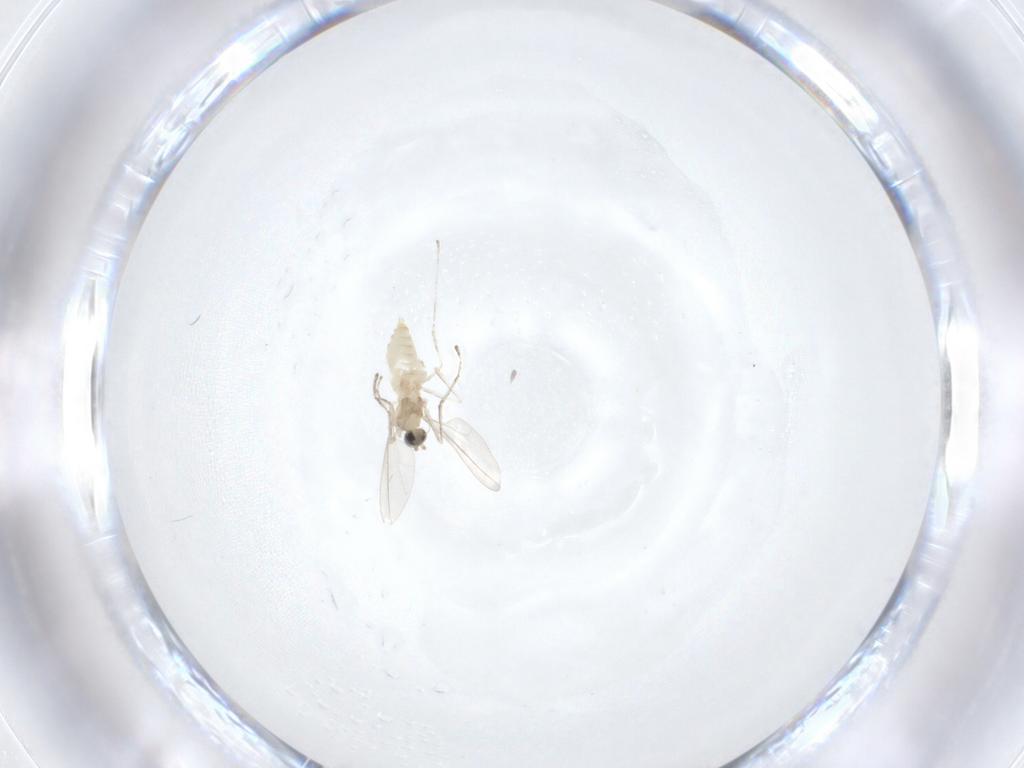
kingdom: Animalia
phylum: Arthropoda
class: Insecta
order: Diptera
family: Cecidomyiidae
